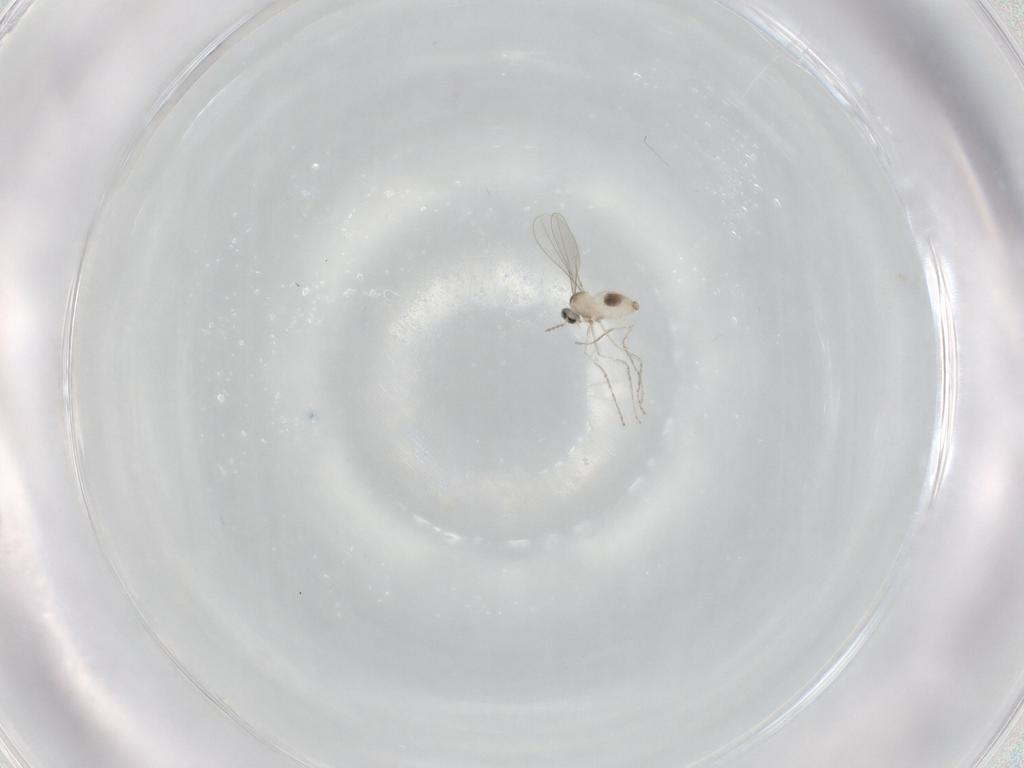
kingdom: Animalia
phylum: Arthropoda
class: Insecta
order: Diptera
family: Cecidomyiidae
